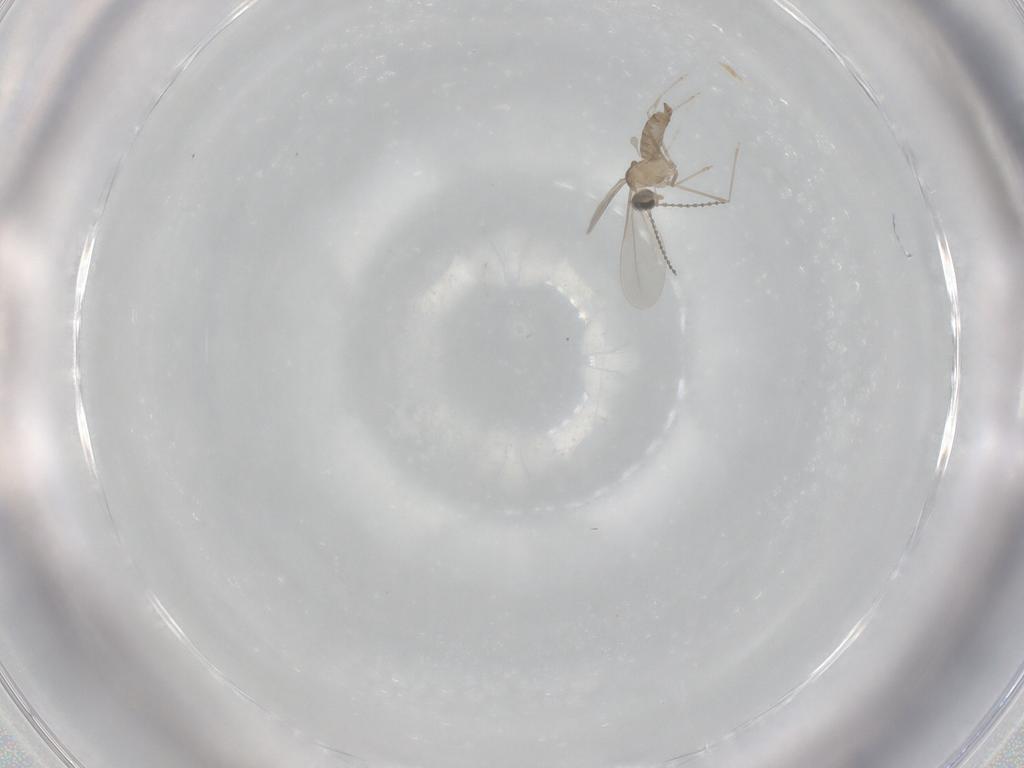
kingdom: Animalia
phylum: Arthropoda
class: Insecta
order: Diptera
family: Cecidomyiidae
